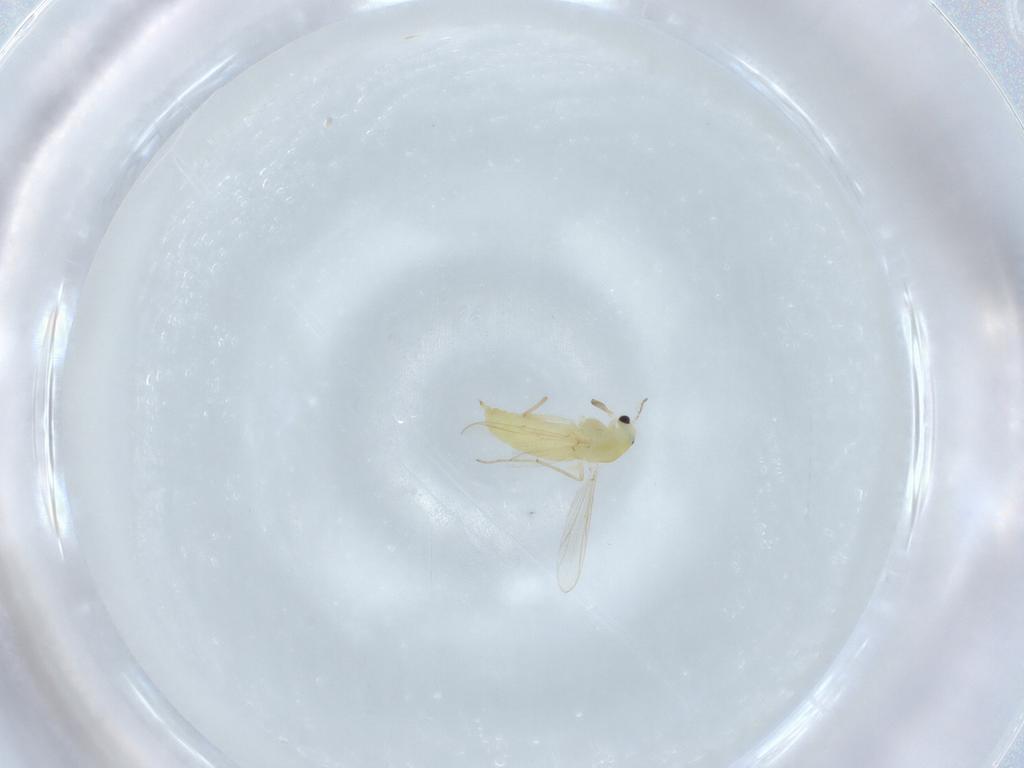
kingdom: Animalia
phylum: Arthropoda
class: Insecta
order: Diptera
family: Chironomidae
